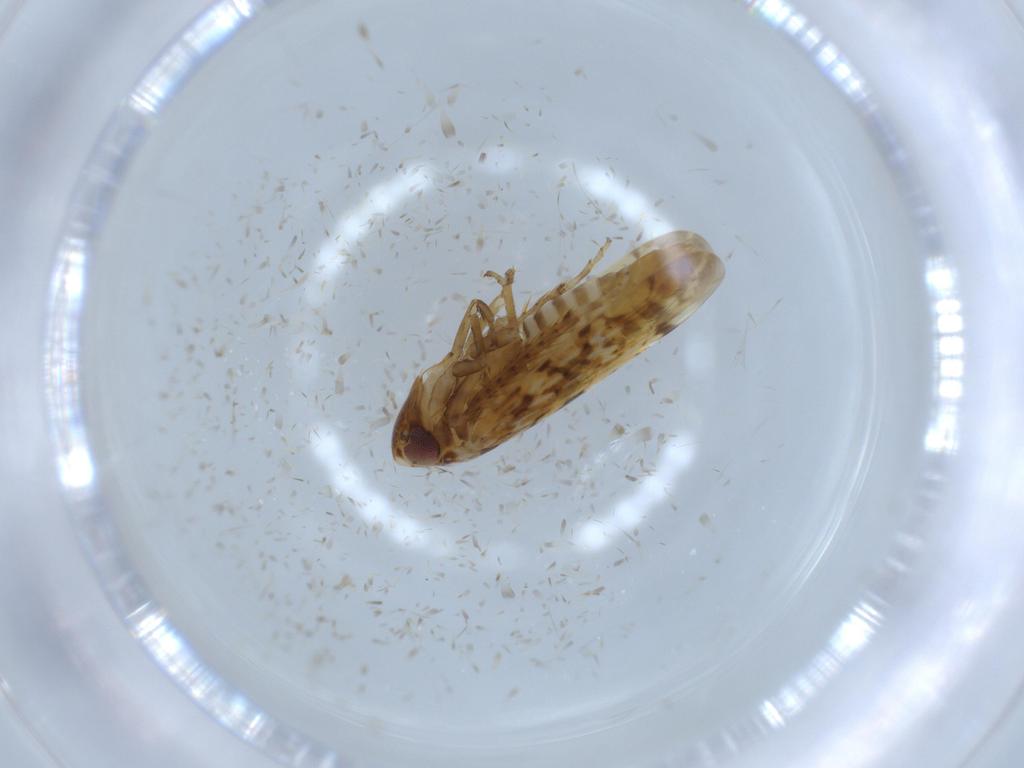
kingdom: Animalia
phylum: Arthropoda
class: Insecta
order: Hemiptera
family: Cicadellidae
